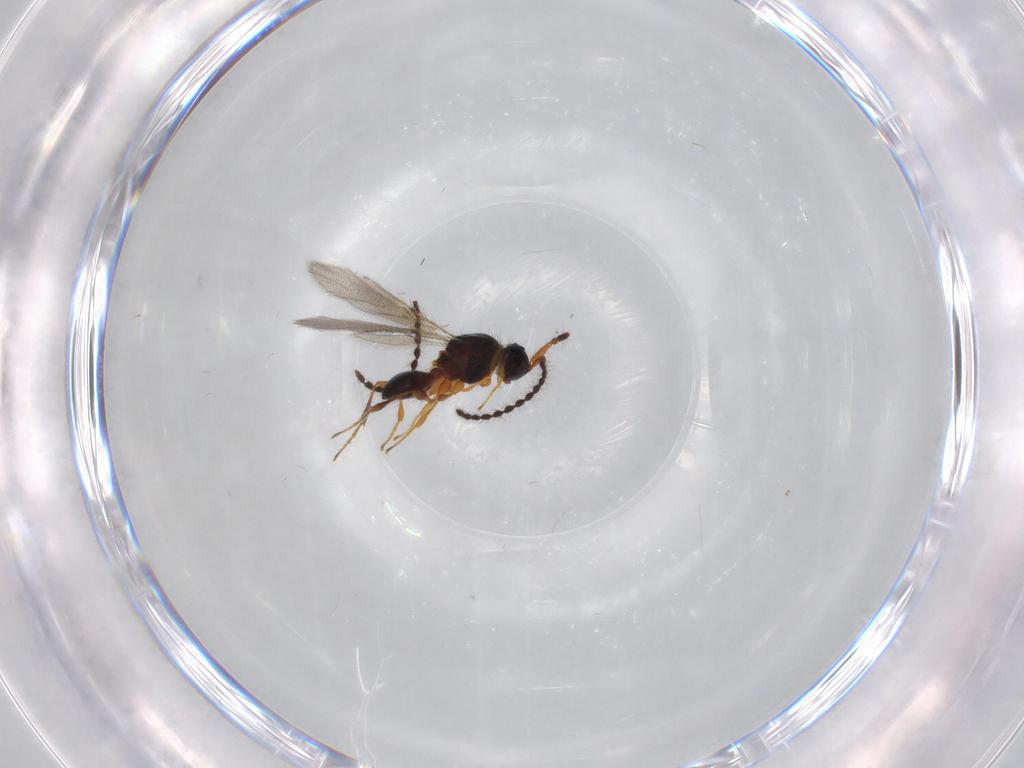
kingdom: Animalia
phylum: Arthropoda
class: Insecta
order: Hymenoptera
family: Diapriidae
